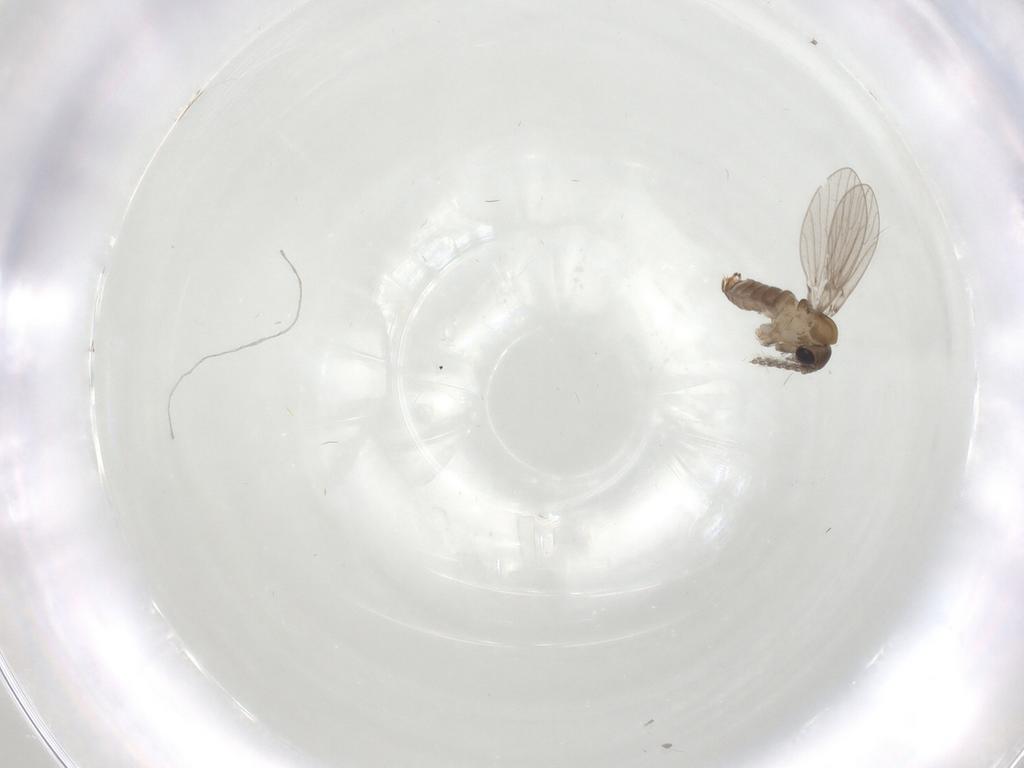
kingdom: Animalia
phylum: Arthropoda
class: Insecta
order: Diptera
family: Psychodidae
